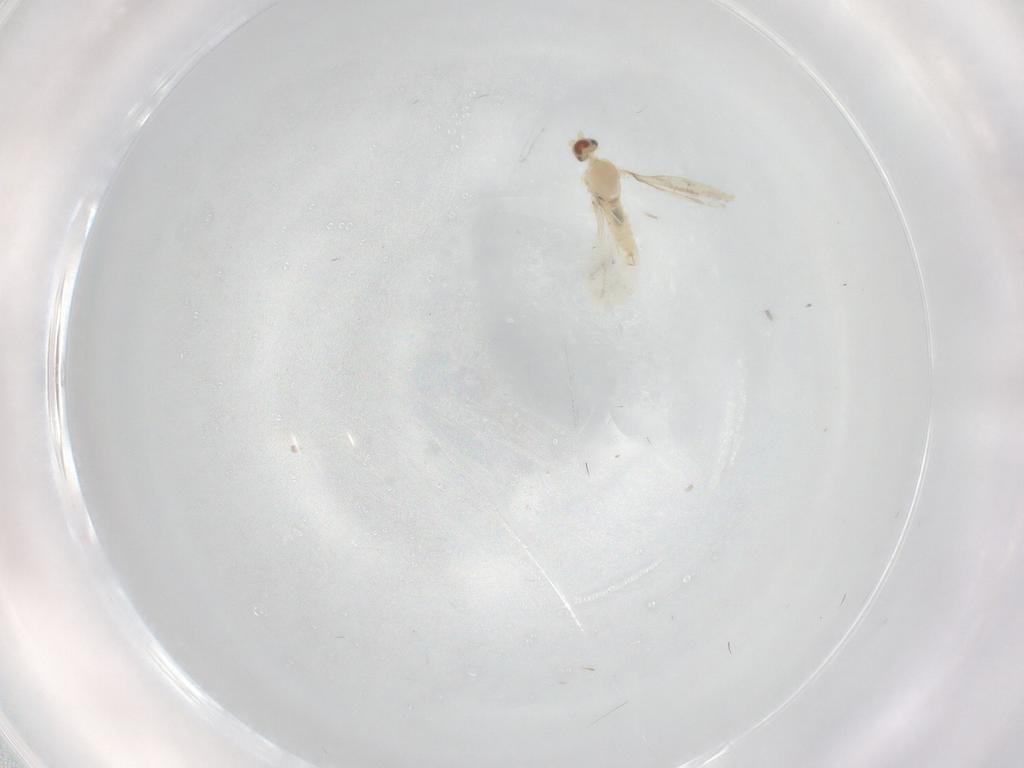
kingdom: Animalia
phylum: Arthropoda
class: Insecta
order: Diptera
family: Cecidomyiidae
